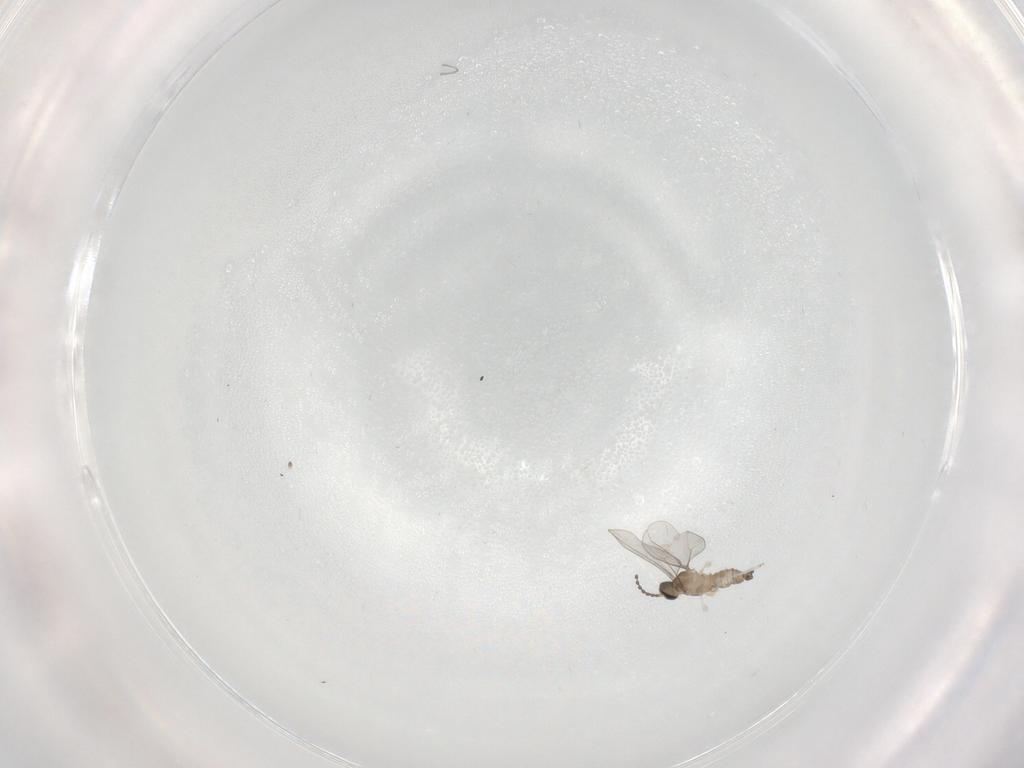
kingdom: Animalia
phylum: Arthropoda
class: Insecta
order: Diptera
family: Cecidomyiidae
